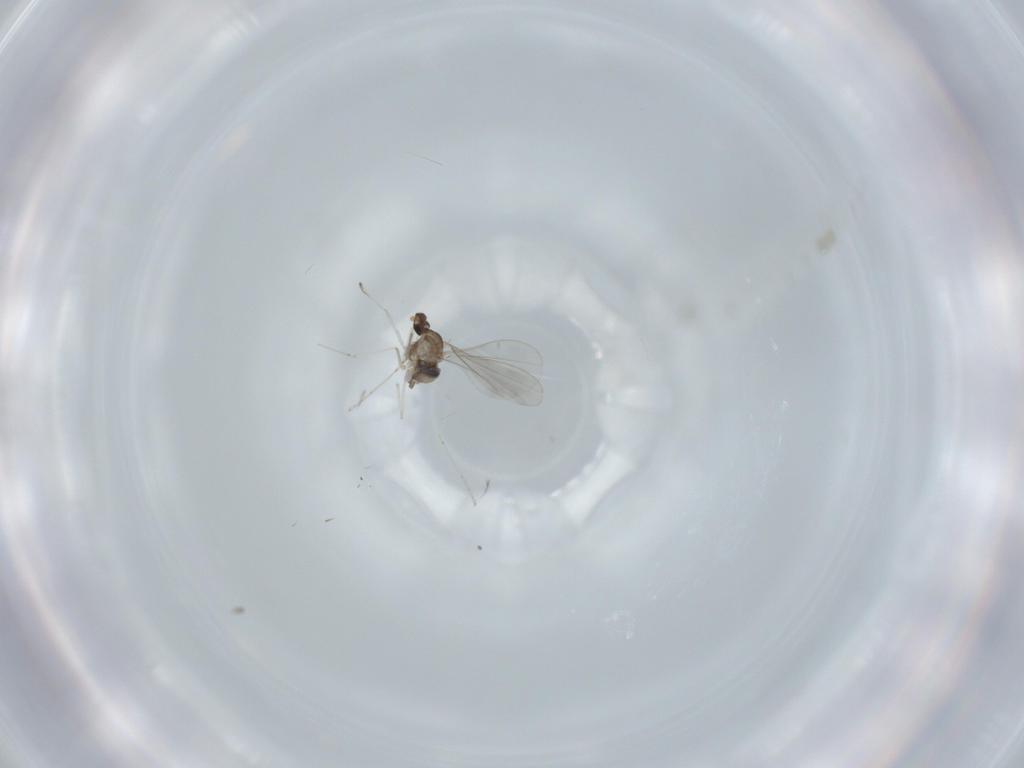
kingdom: Animalia
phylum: Arthropoda
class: Insecta
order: Diptera
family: Cecidomyiidae
